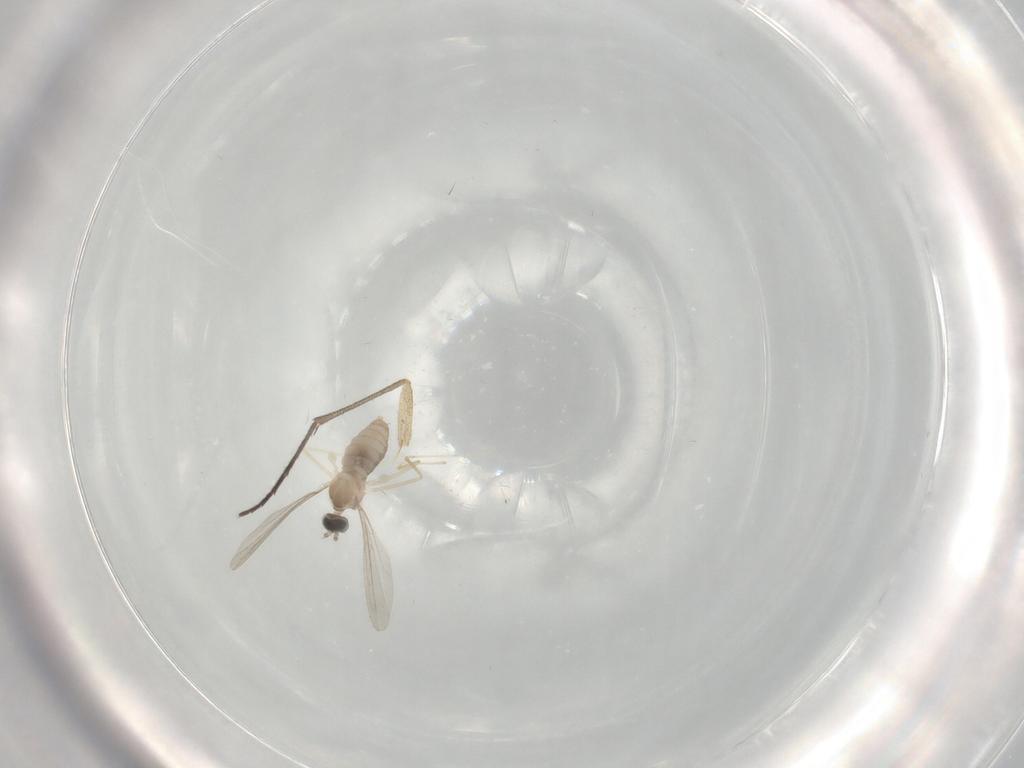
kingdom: Animalia
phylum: Arthropoda
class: Insecta
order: Diptera
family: Cecidomyiidae
